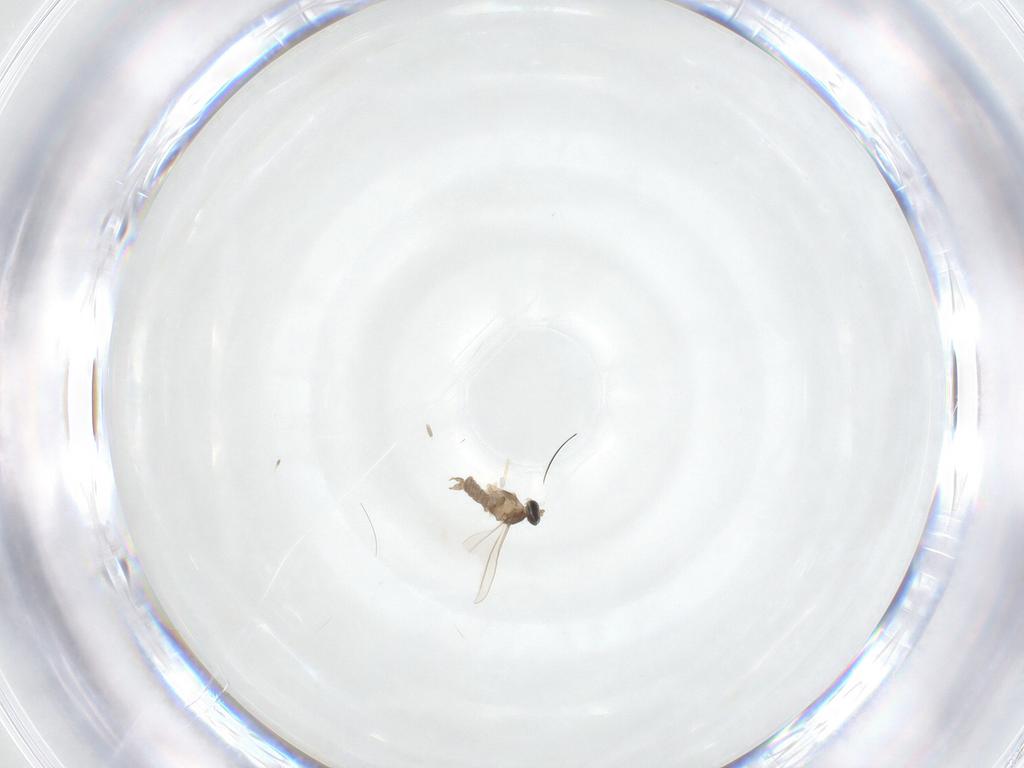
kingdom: Animalia
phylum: Arthropoda
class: Insecta
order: Diptera
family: Cecidomyiidae
